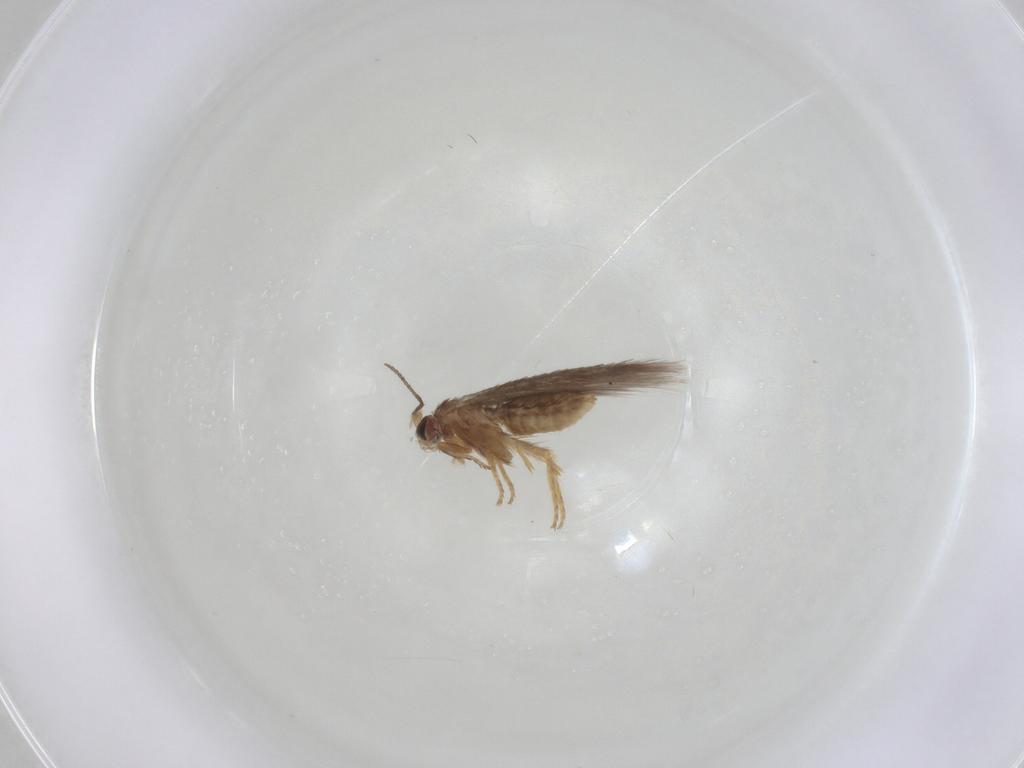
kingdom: Animalia
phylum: Arthropoda
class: Insecta
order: Lepidoptera
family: Nepticulidae
